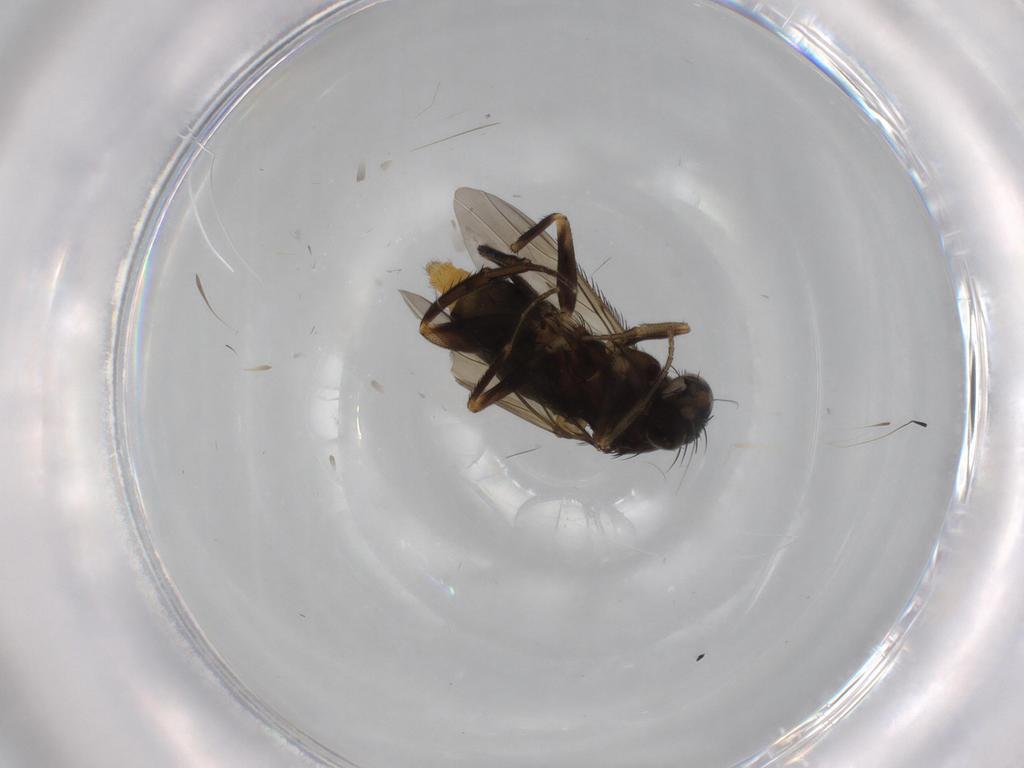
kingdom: Animalia
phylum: Arthropoda
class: Insecta
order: Diptera
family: Phoridae
